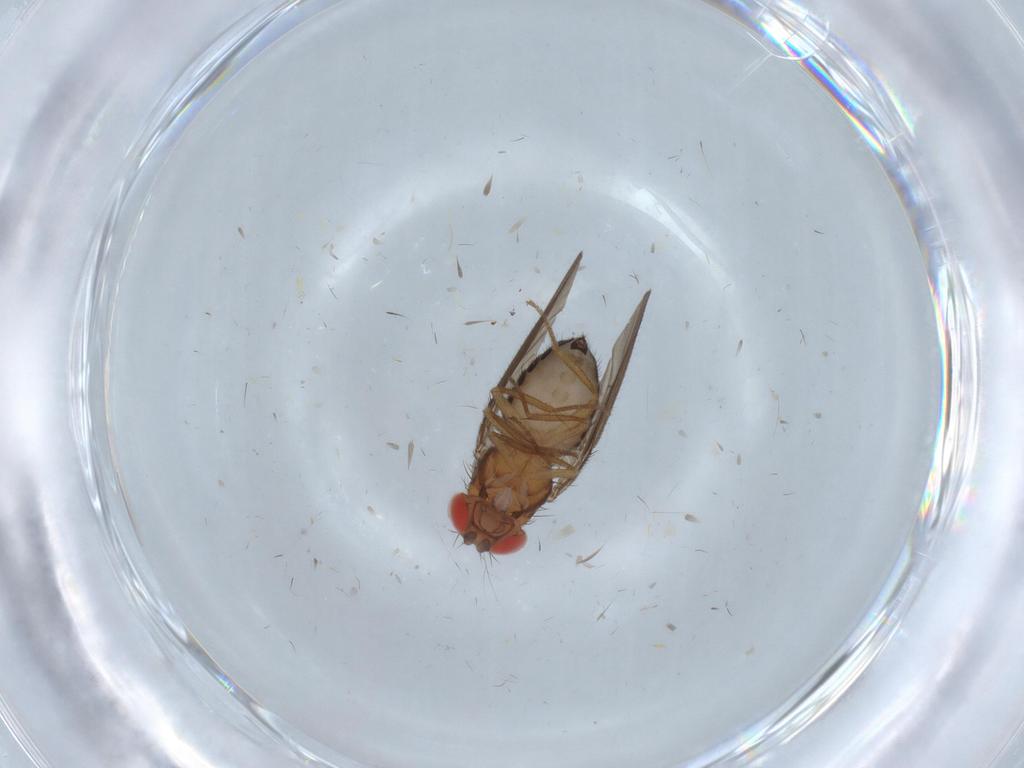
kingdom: Animalia
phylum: Arthropoda
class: Insecta
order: Diptera
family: Drosophilidae
